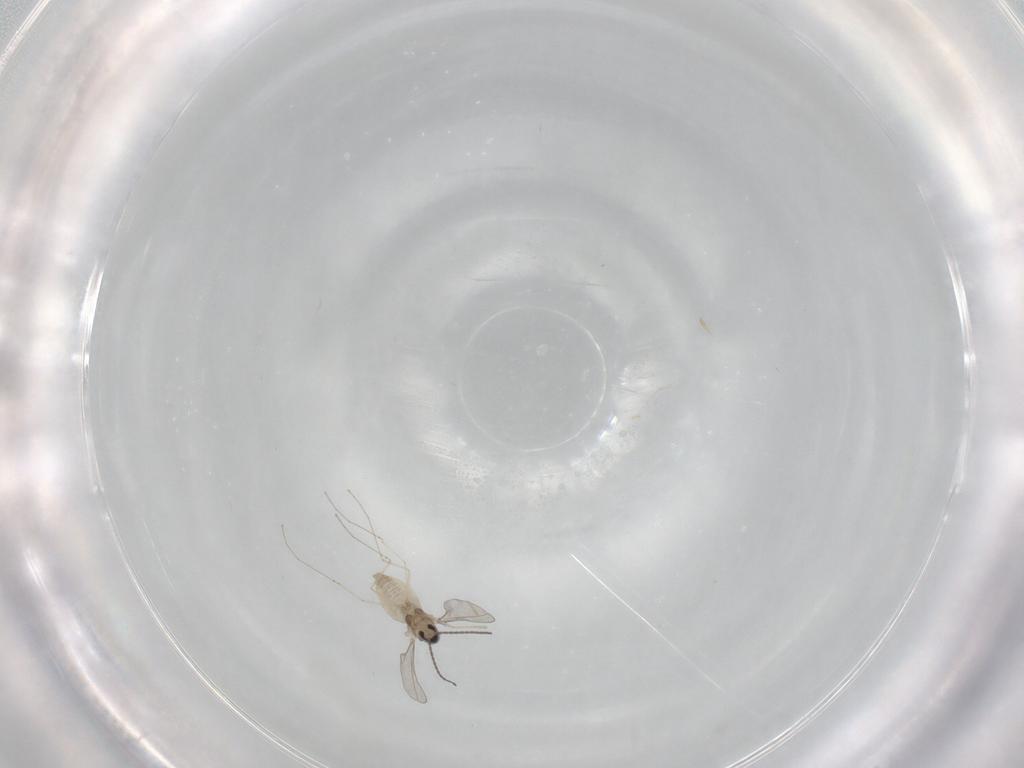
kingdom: Animalia
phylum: Arthropoda
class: Insecta
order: Diptera
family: Cecidomyiidae
